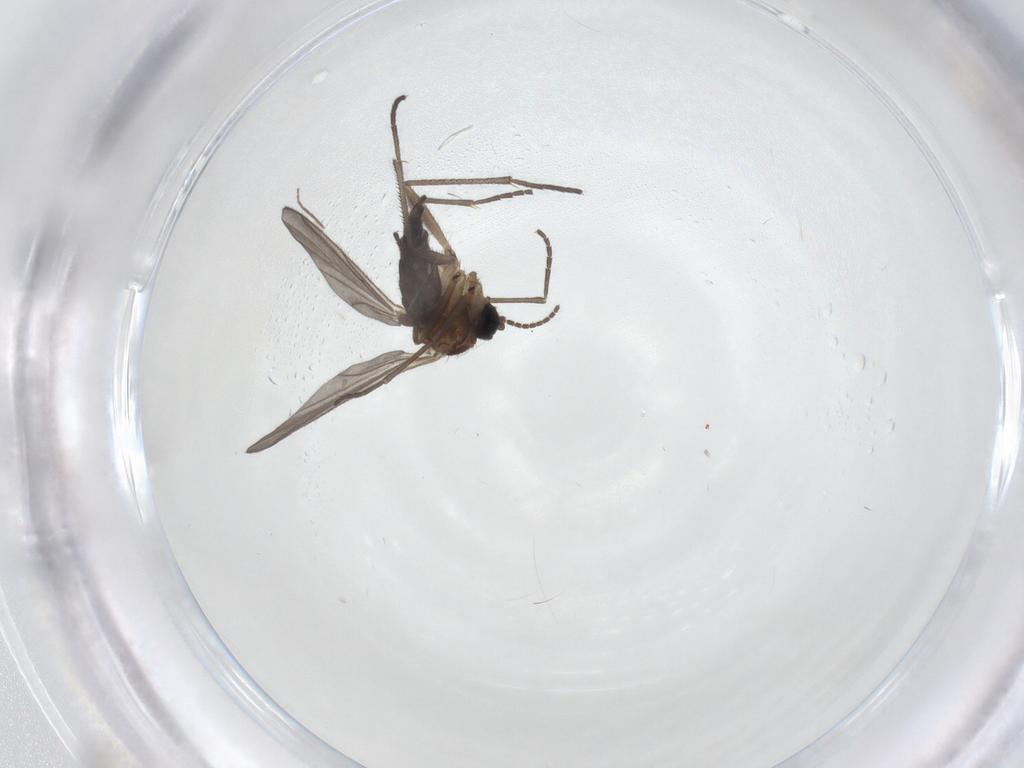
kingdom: Animalia
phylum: Arthropoda
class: Insecta
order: Diptera
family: Sciaridae
